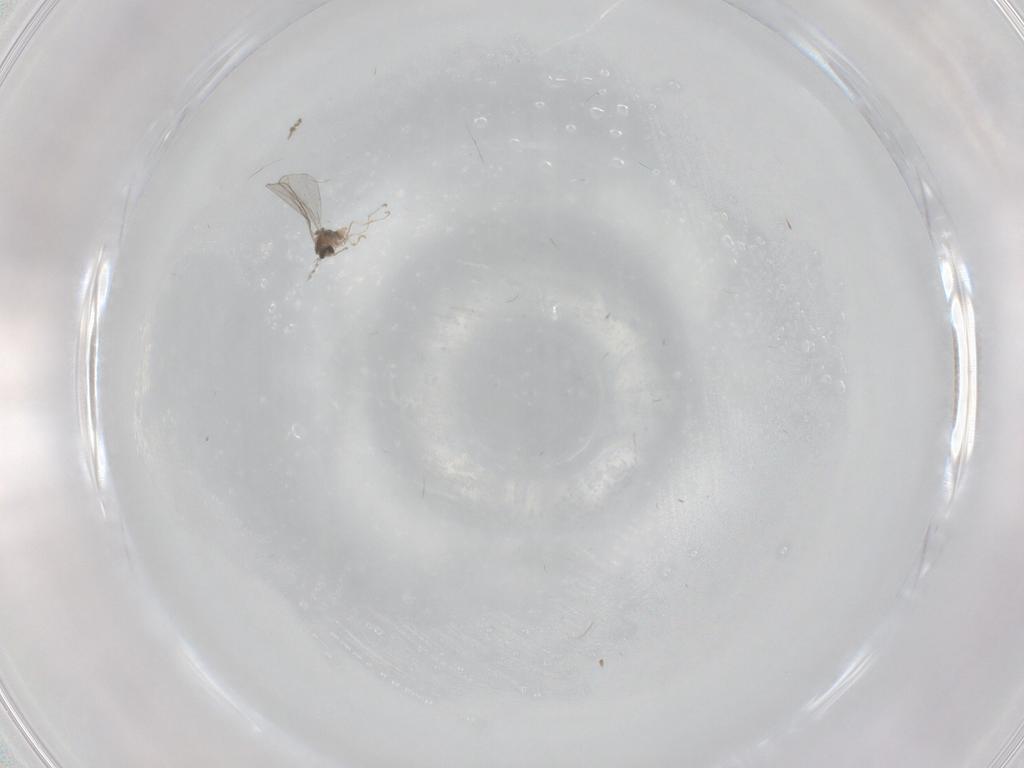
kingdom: Animalia
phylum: Arthropoda
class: Insecta
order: Diptera
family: Cecidomyiidae
